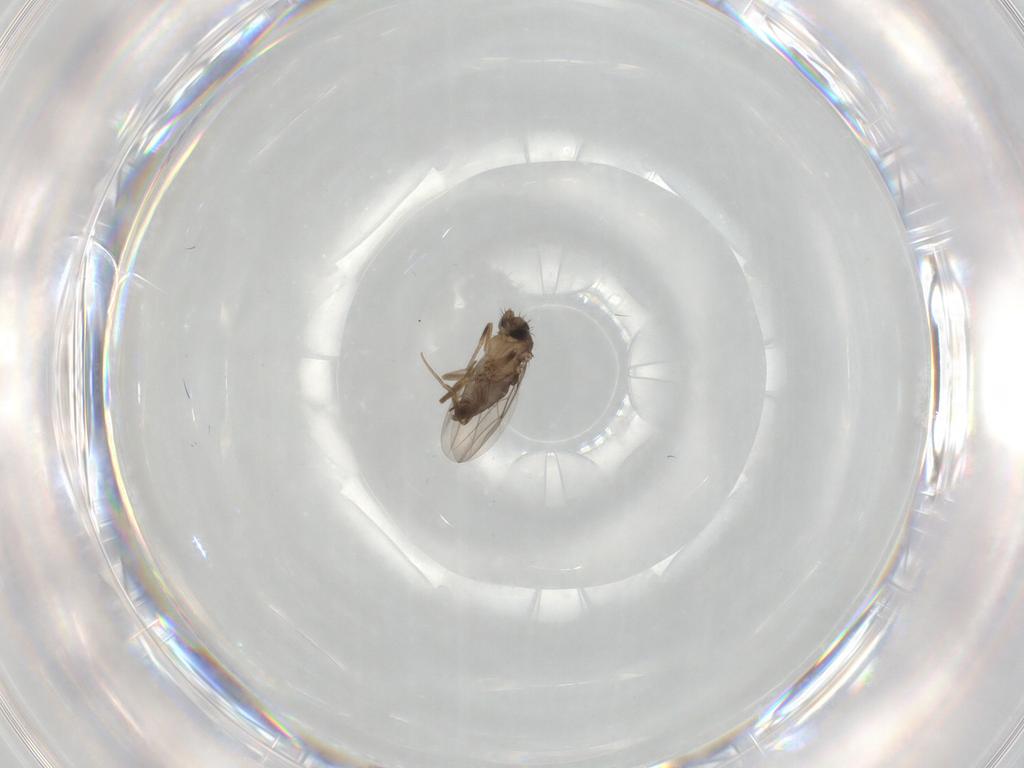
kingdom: Animalia
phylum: Arthropoda
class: Insecta
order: Diptera
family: Phoridae
